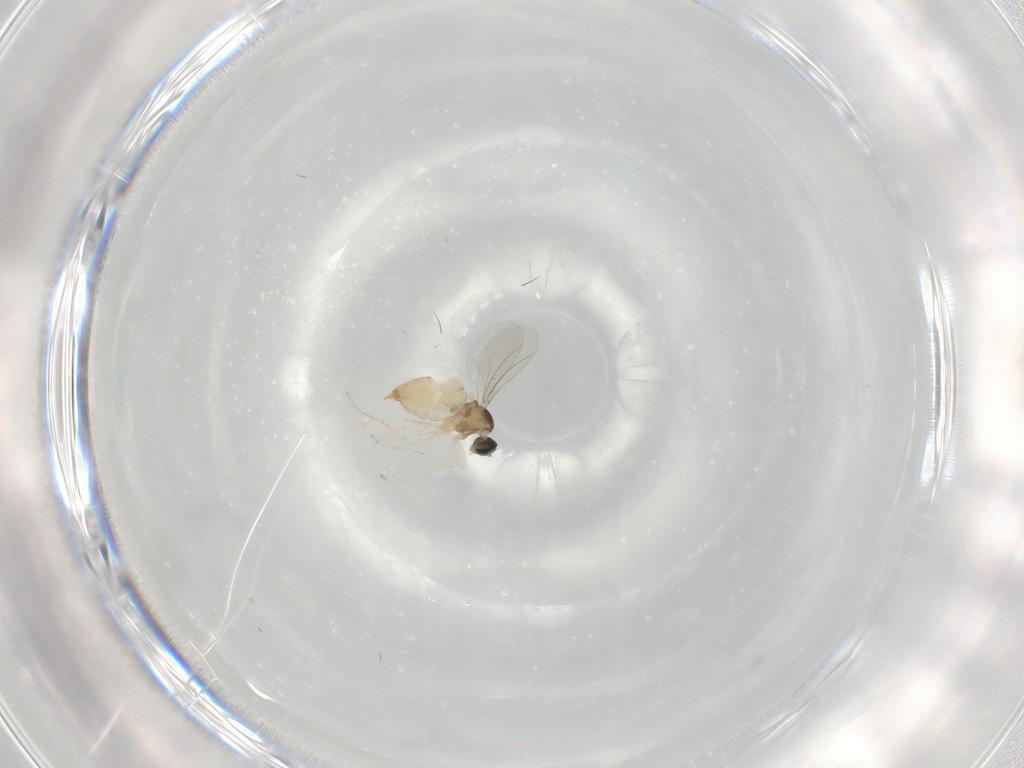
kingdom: Animalia
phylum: Arthropoda
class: Insecta
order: Diptera
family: Cecidomyiidae
